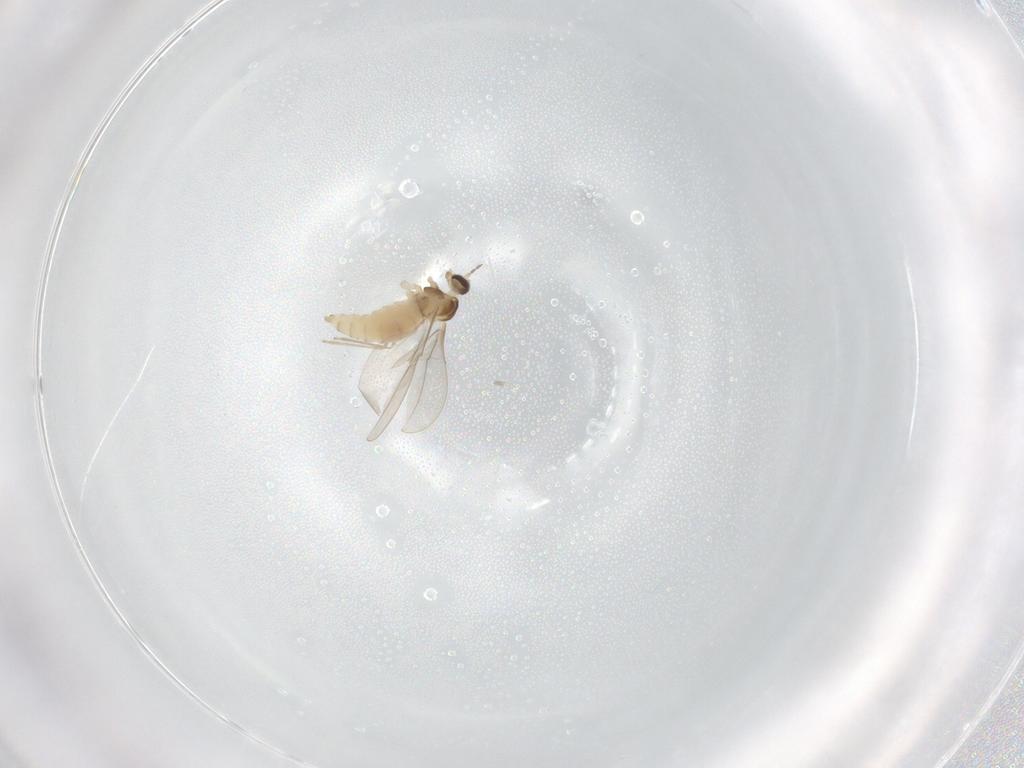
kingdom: Animalia
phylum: Arthropoda
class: Insecta
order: Diptera
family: Cecidomyiidae
